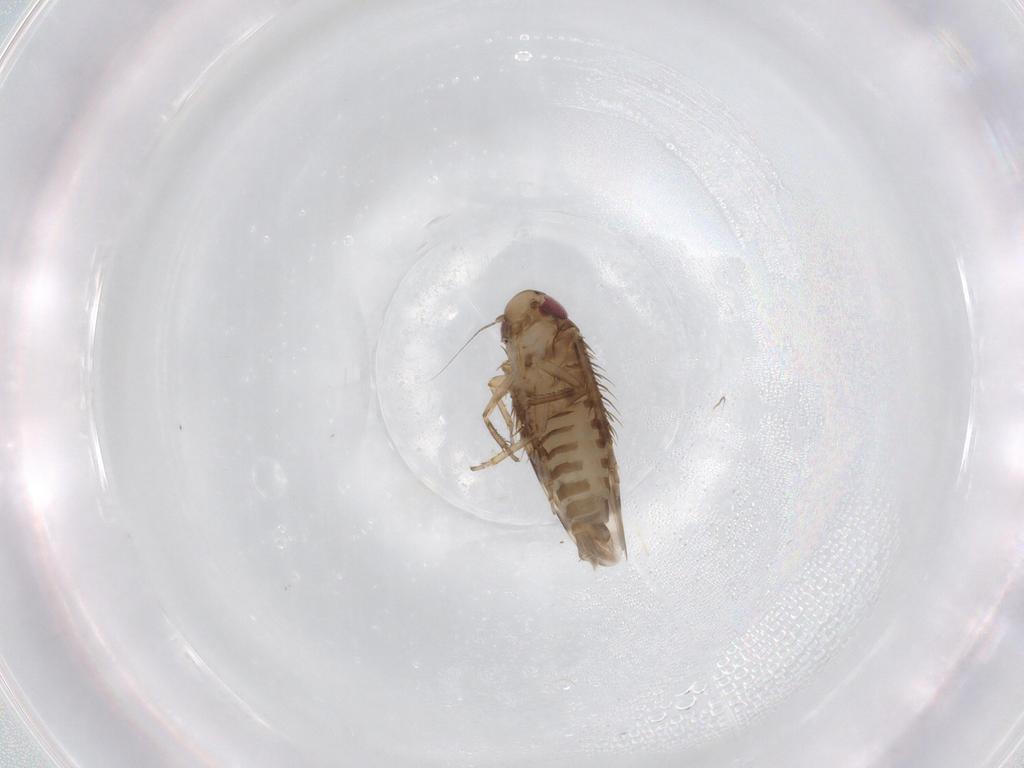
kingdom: Animalia
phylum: Arthropoda
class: Insecta
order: Hemiptera
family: Cicadellidae
